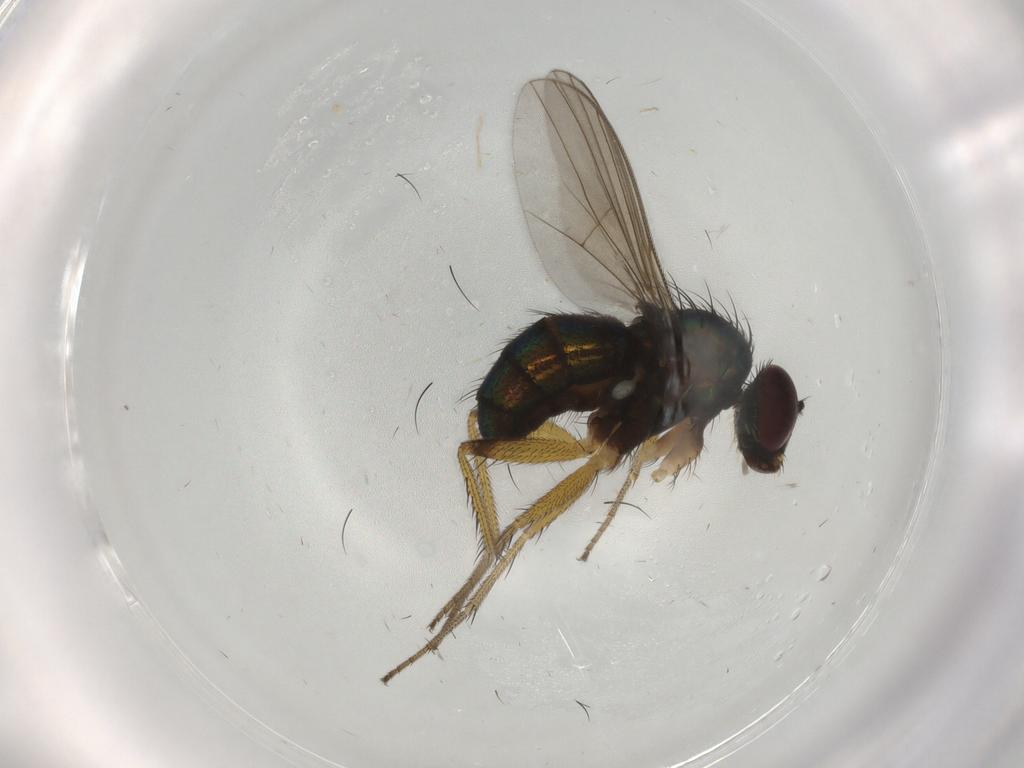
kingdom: Animalia
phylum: Arthropoda
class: Insecta
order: Diptera
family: Dolichopodidae
